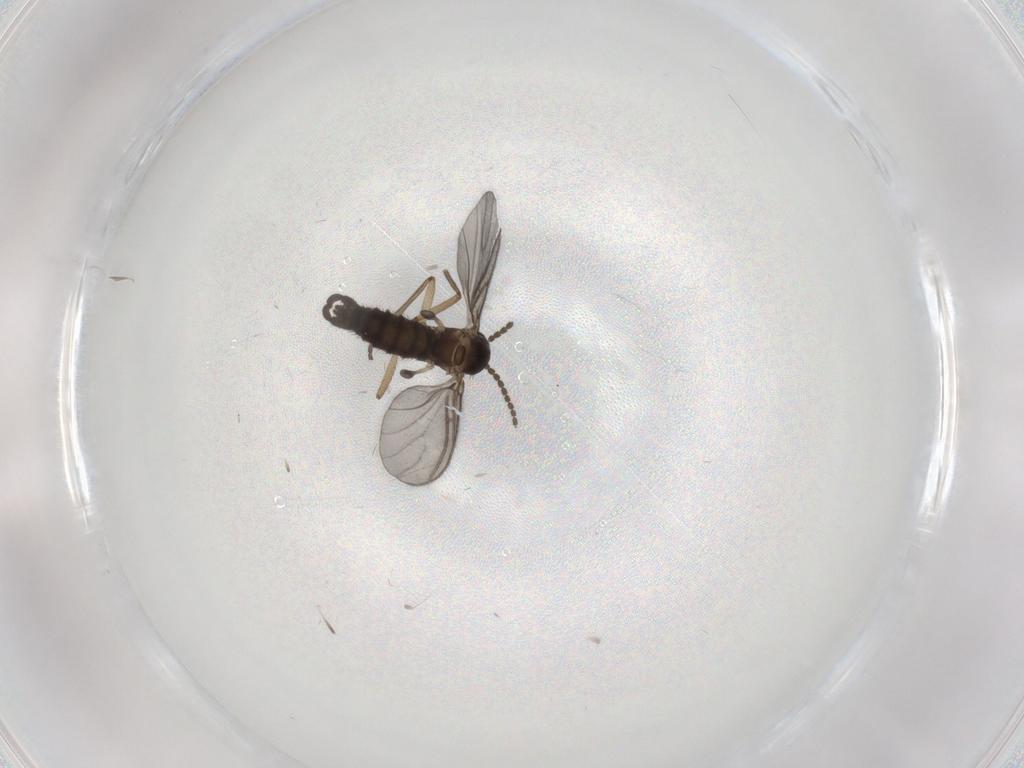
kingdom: Animalia
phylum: Arthropoda
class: Insecta
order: Diptera
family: Sciaridae
